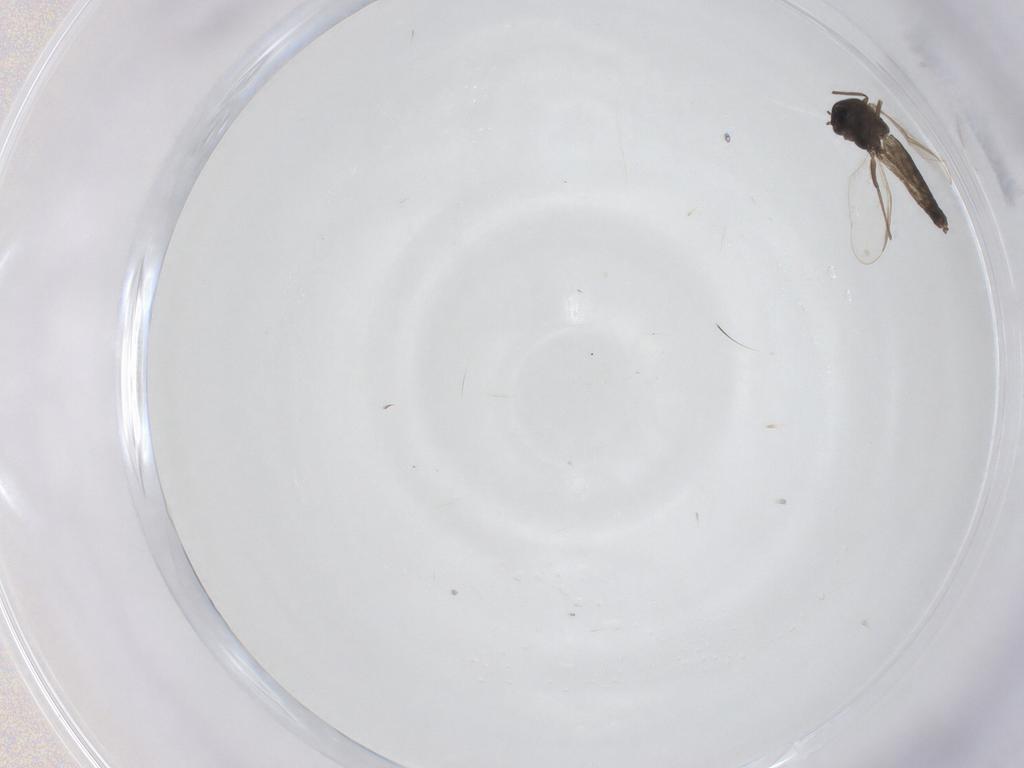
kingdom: Animalia
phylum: Arthropoda
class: Insecta
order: Diptera
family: Chironomidae
